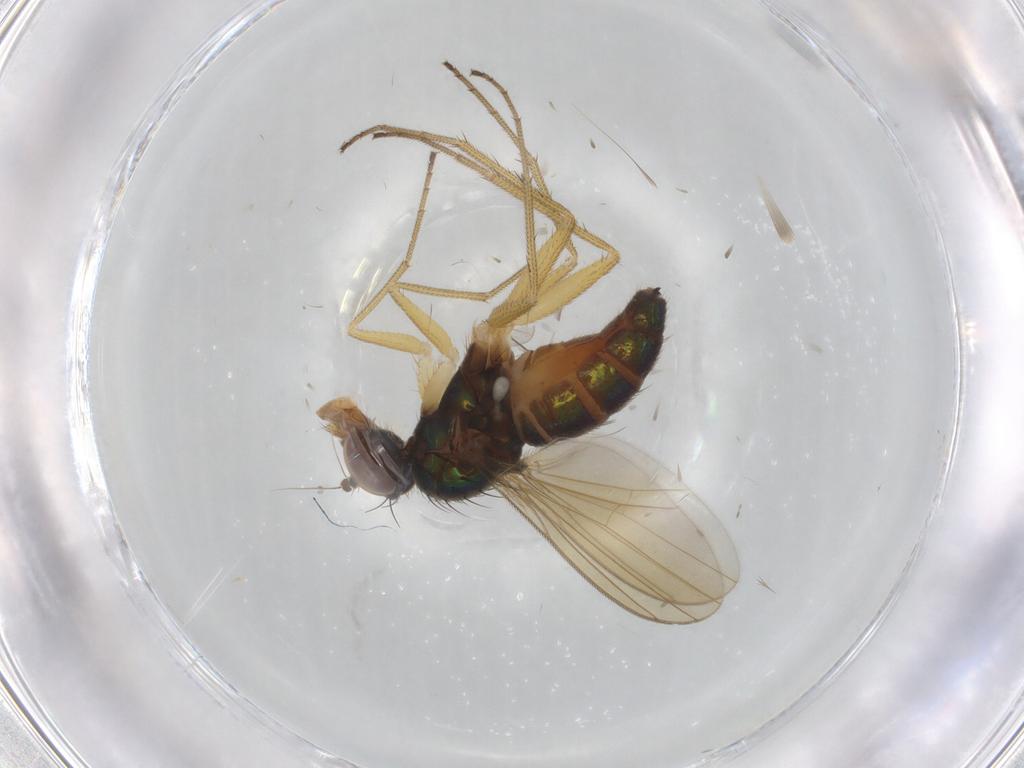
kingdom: Animalia
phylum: Arthropoda
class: Insecta
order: Diptera
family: Dolichopodidae
